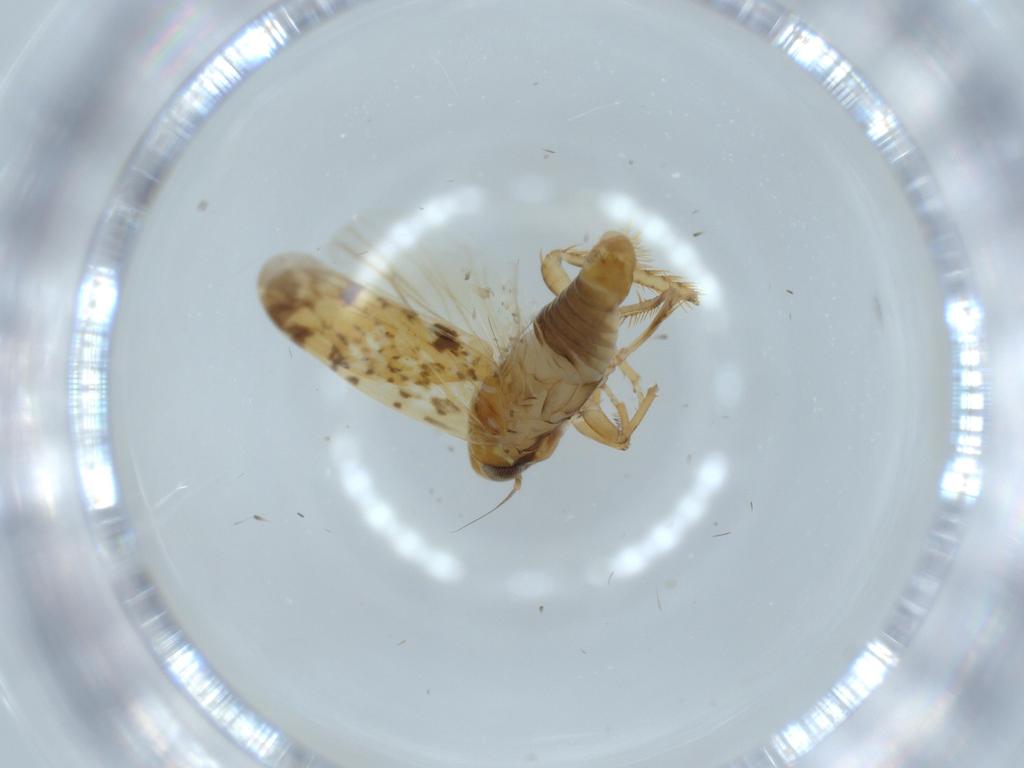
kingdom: Animalia
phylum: Arthropoda
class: Insecta
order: Hemiptera
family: Cicadellidae
